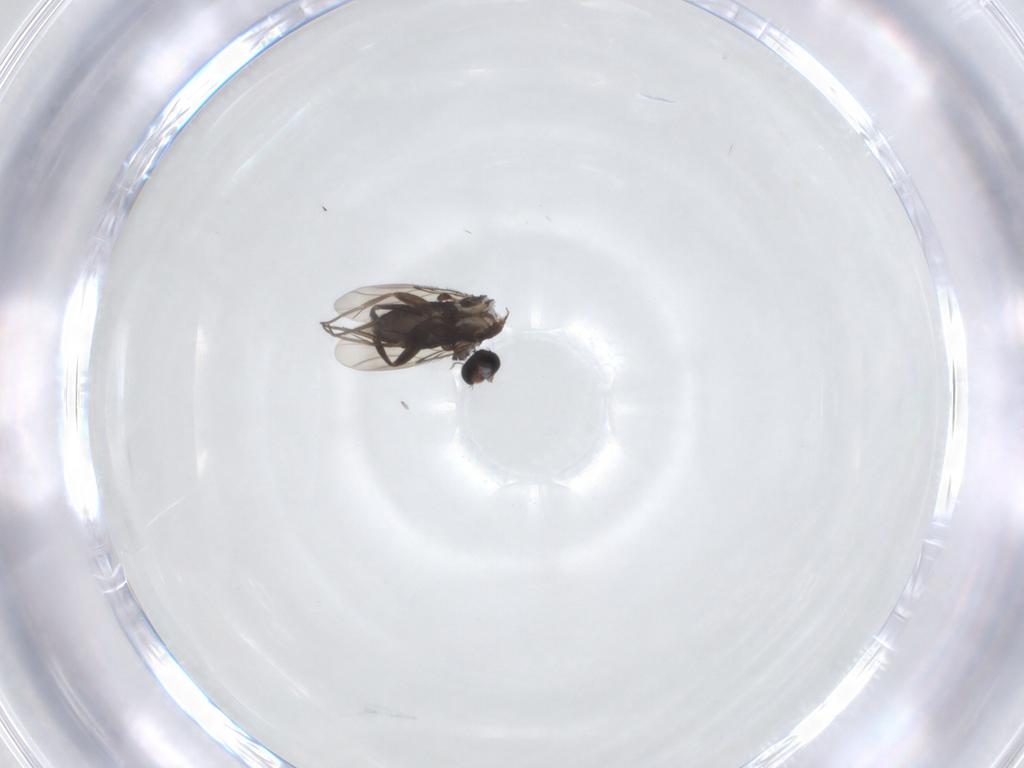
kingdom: Animalia
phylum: Arthropoda
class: Insecta
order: Diptera
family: Phoridae
